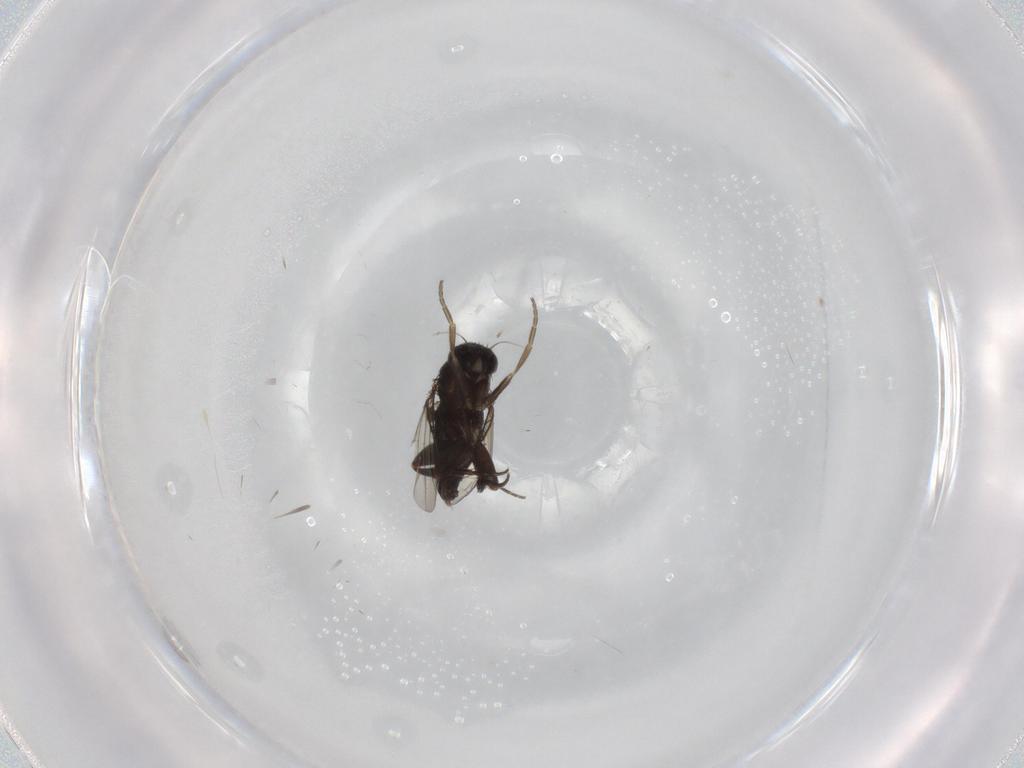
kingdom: Animalia
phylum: Arthropoda
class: Insecta
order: Diptera
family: Phoridae
